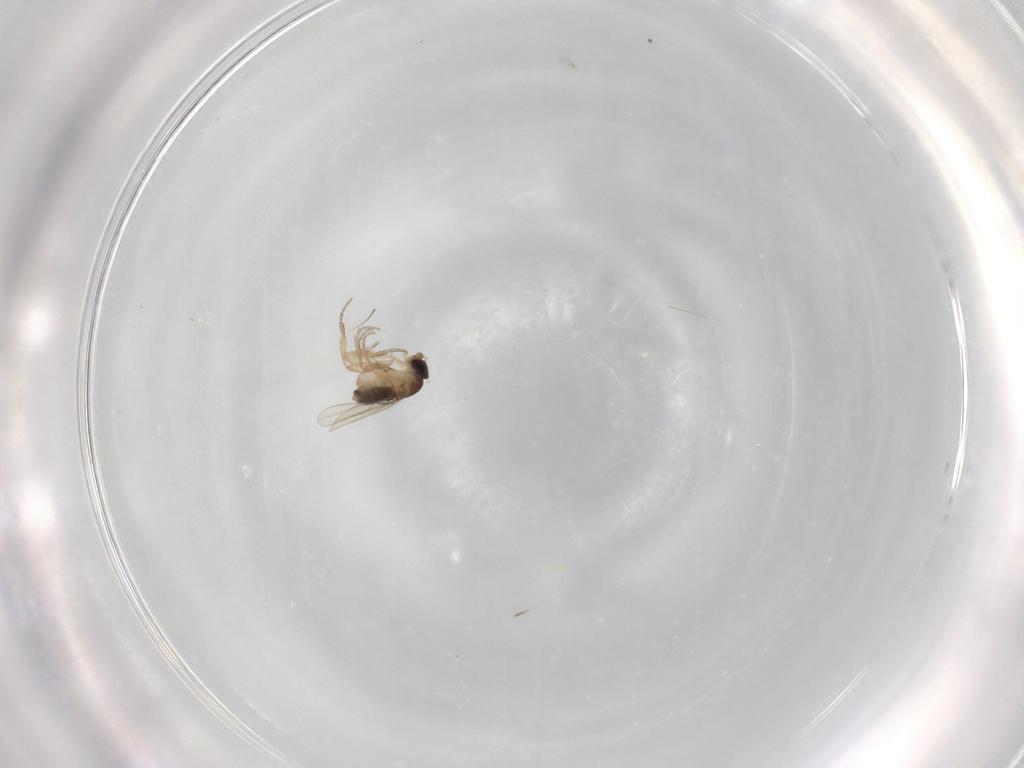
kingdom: Animalia
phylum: Arthropoda
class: Insecta
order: Diptera
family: Phoridae
